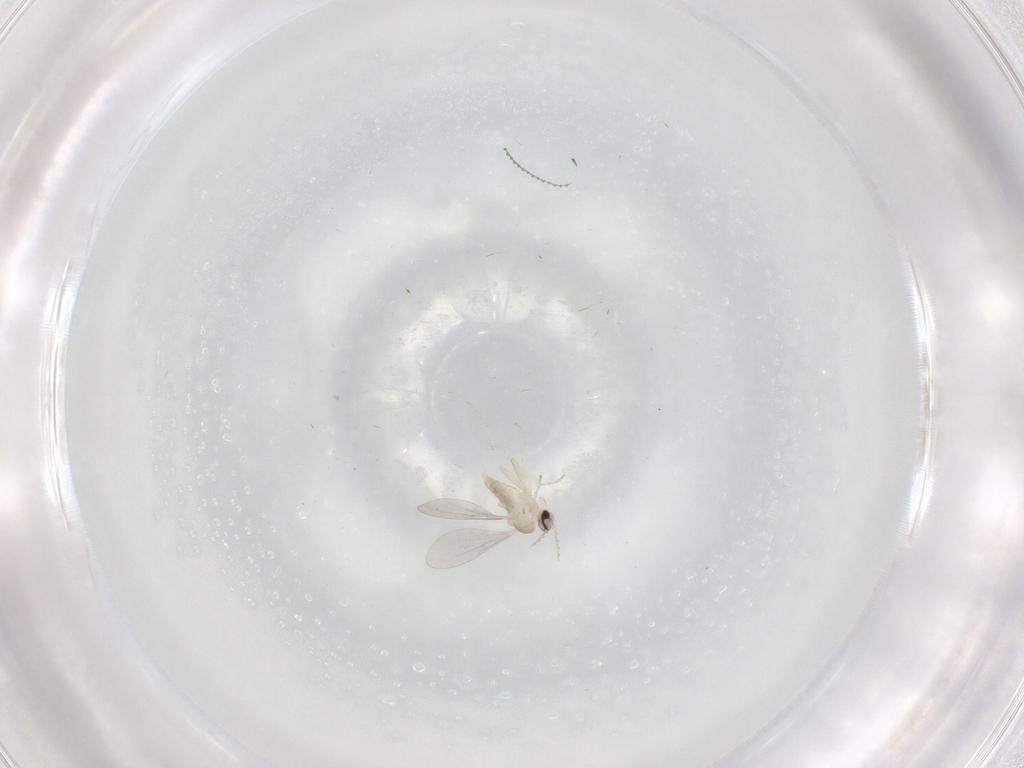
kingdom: Animalia
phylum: Arthropoda
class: Insecta
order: Diptera
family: Cecidomyiidae
